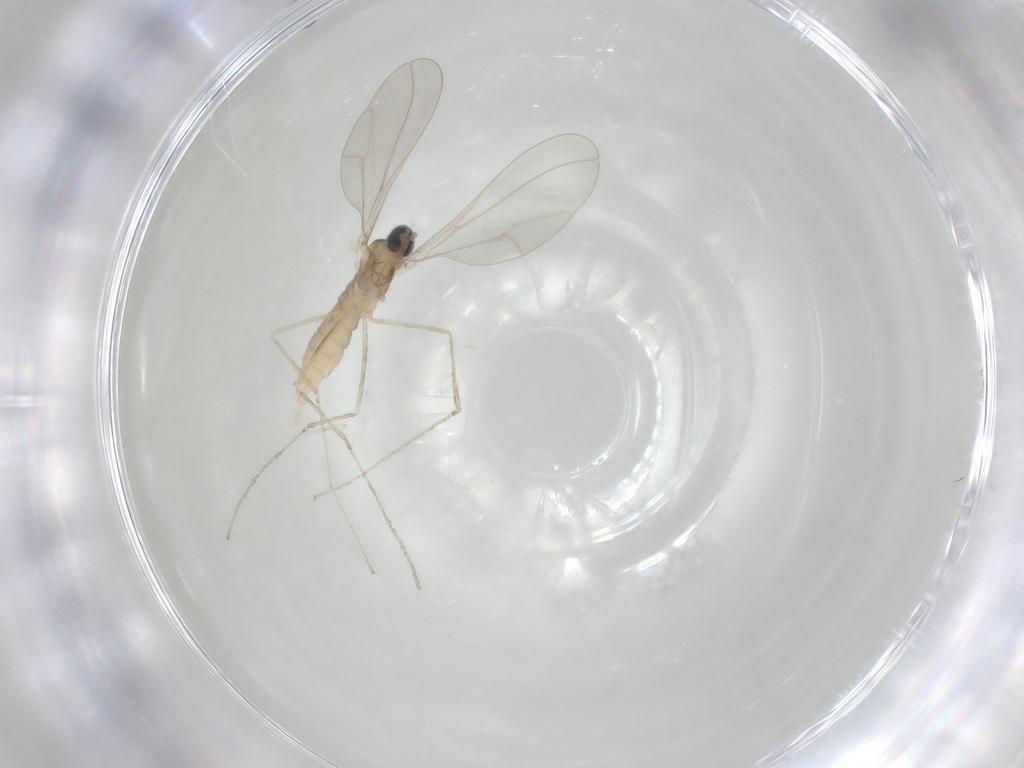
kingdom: Animalia
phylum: Arthropoda
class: Insecta
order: Diptera
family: Cecidomyiidae
